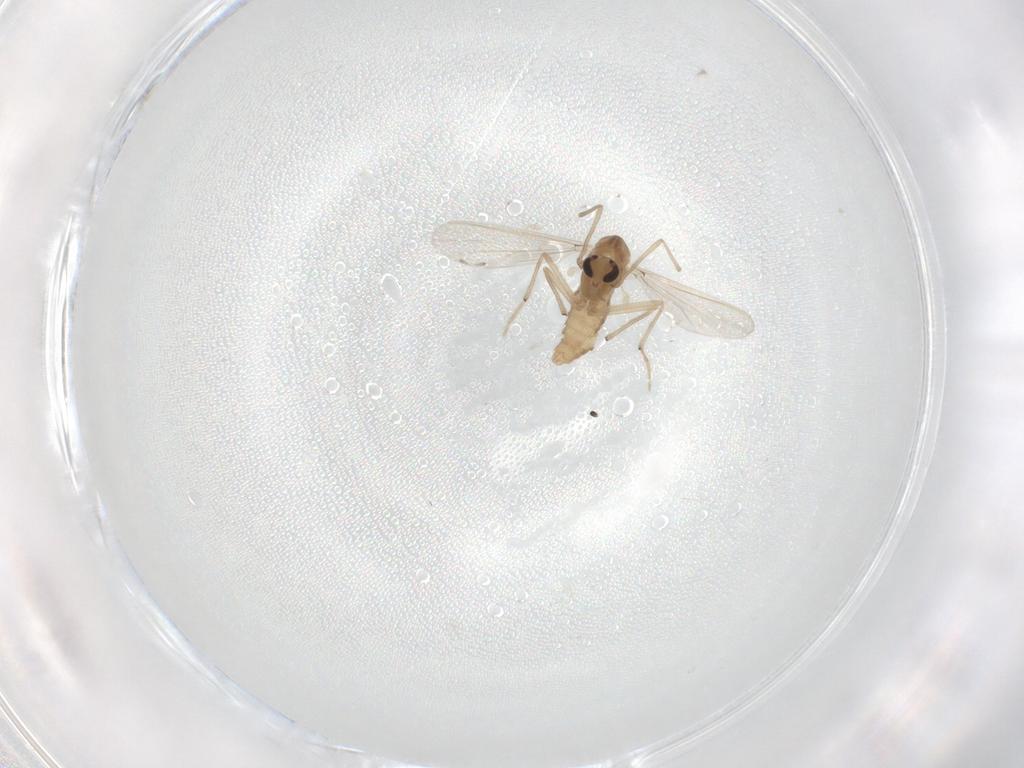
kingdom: Animalia
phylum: Arthropoda
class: Insecta
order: Diptera
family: Chironomidae
